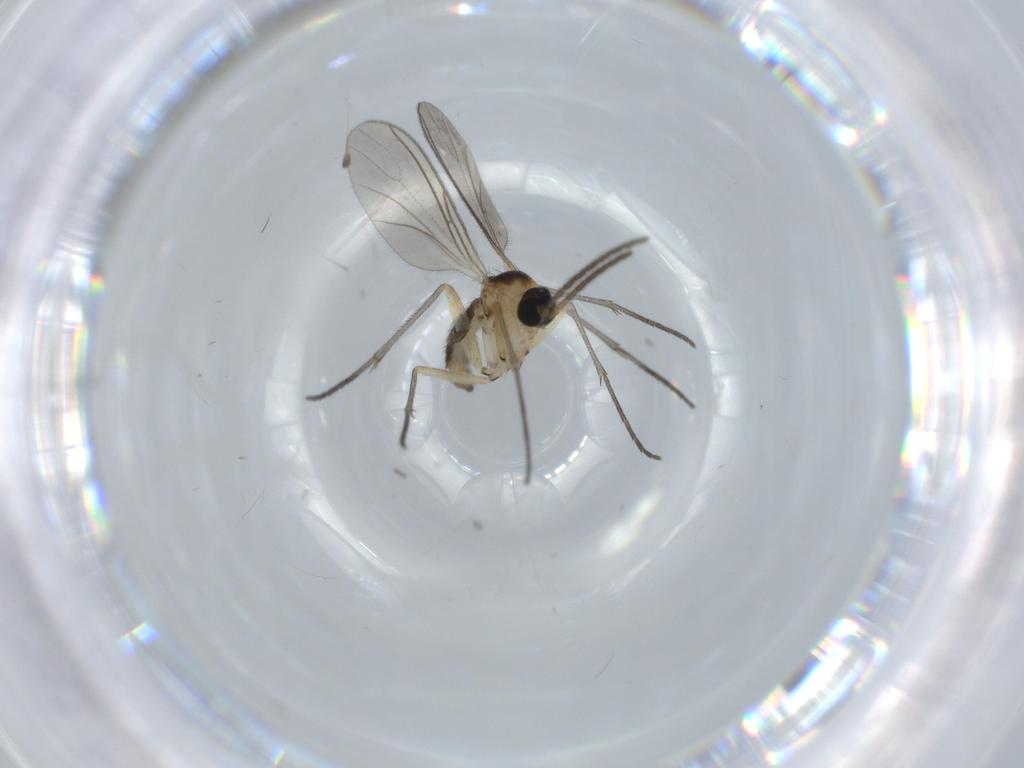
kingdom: Animalia
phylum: Arthropoda
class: Insecta
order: Diptera
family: Sciaridae
